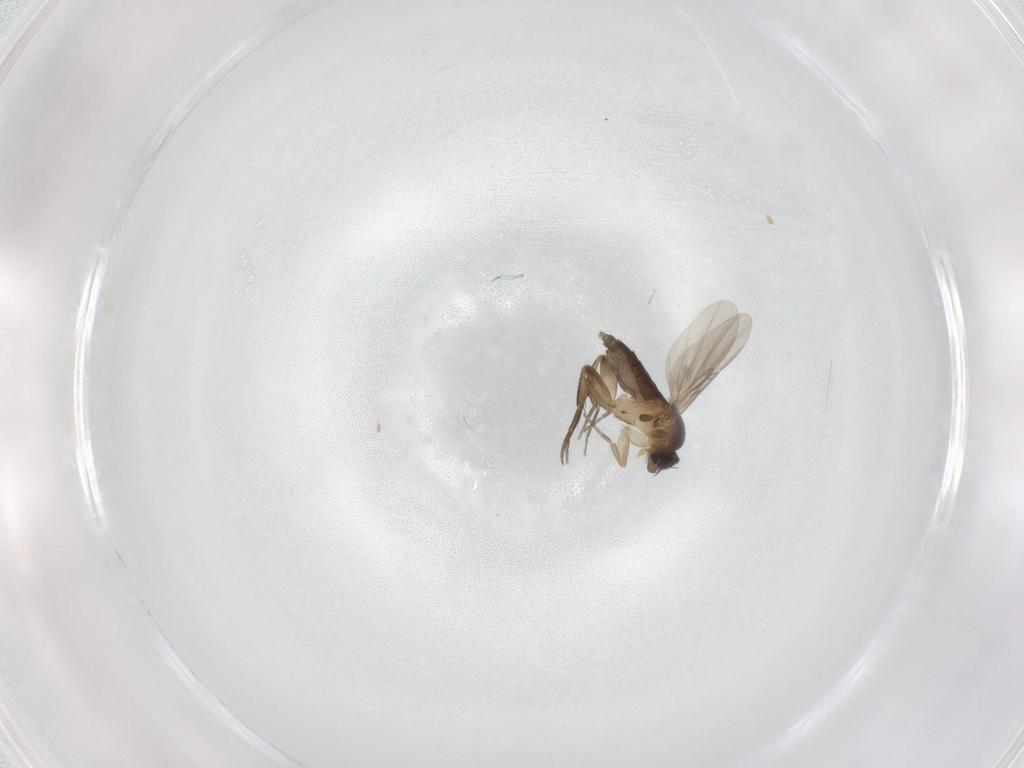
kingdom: Animalia
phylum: Arthropoda
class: Insecta
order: Diptera
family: Phoridae
